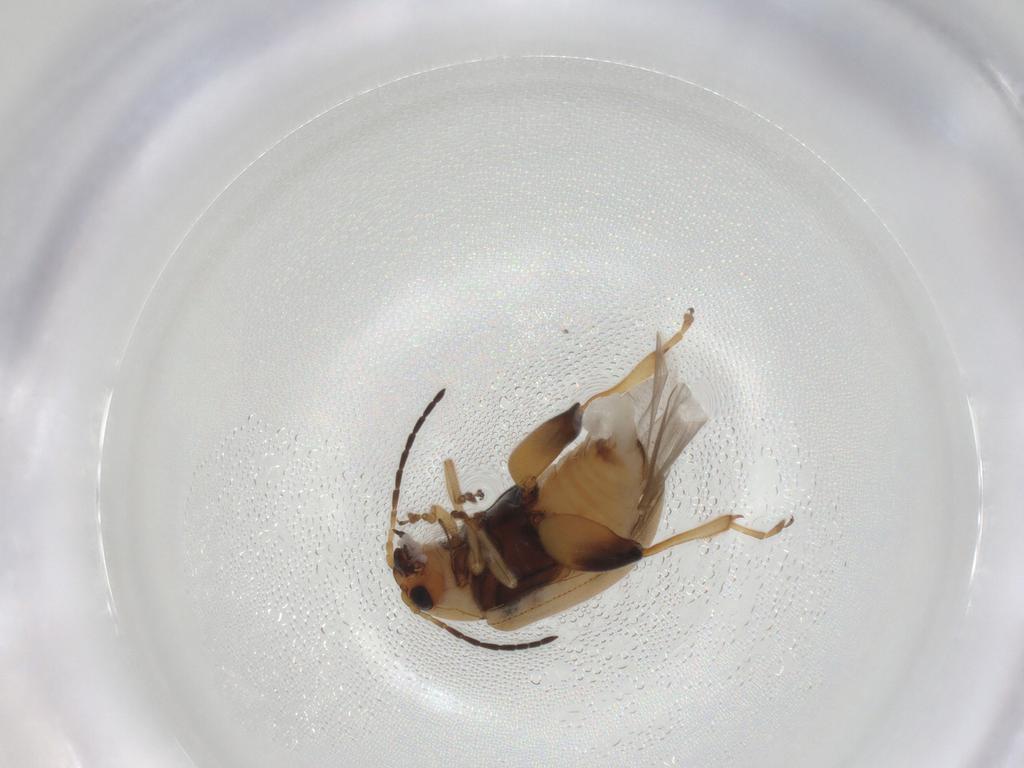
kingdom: Animalia
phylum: Arthropoda
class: Insecta
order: Coleoptera
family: Chrysomelidae
